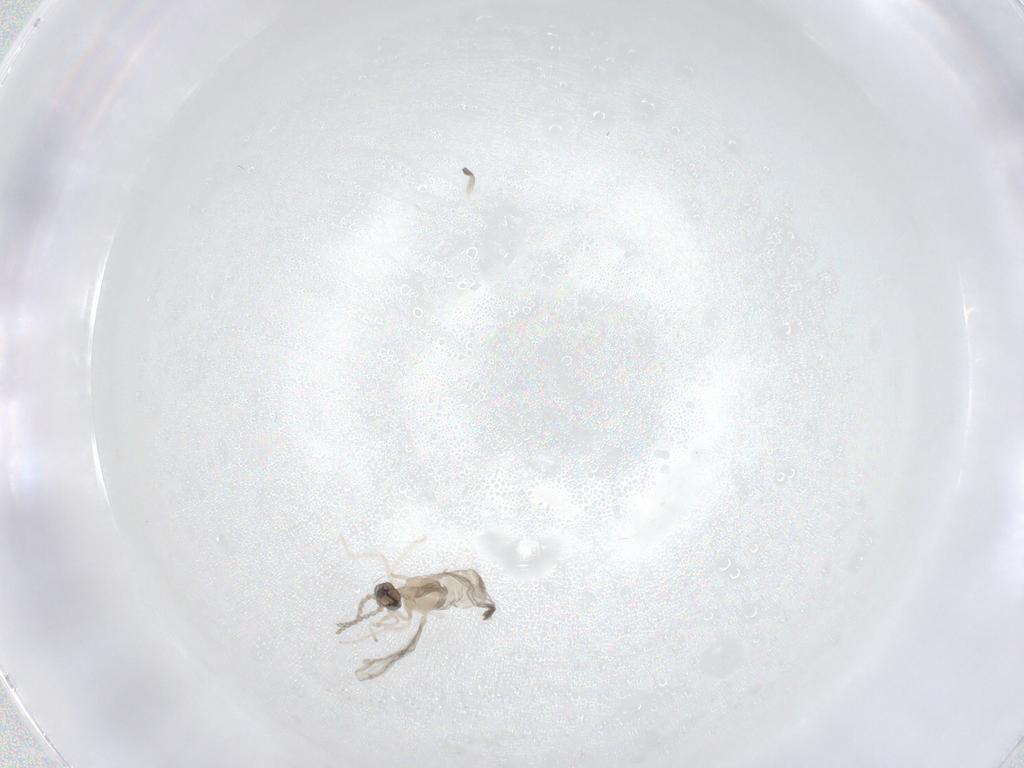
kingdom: Animalia
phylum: Arthropoda
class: Insecta
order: Diptera
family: Cecidomyiidae
